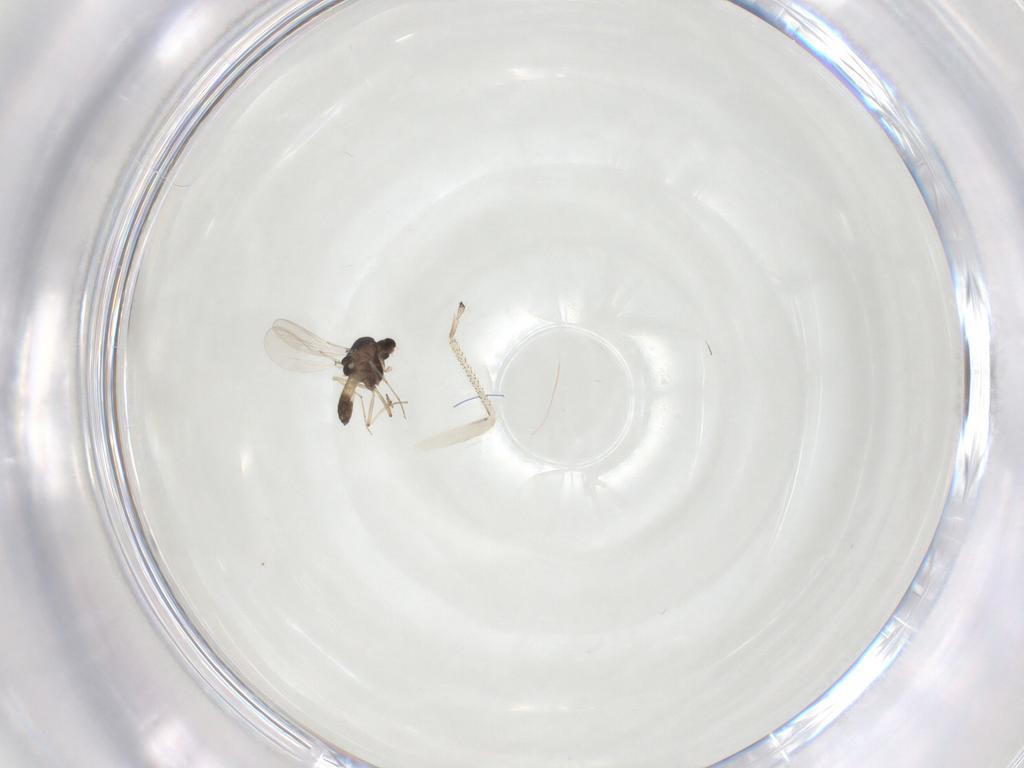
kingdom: Animalia
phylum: Arthropoda
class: Insecta
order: Diptera
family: Chironomidae
